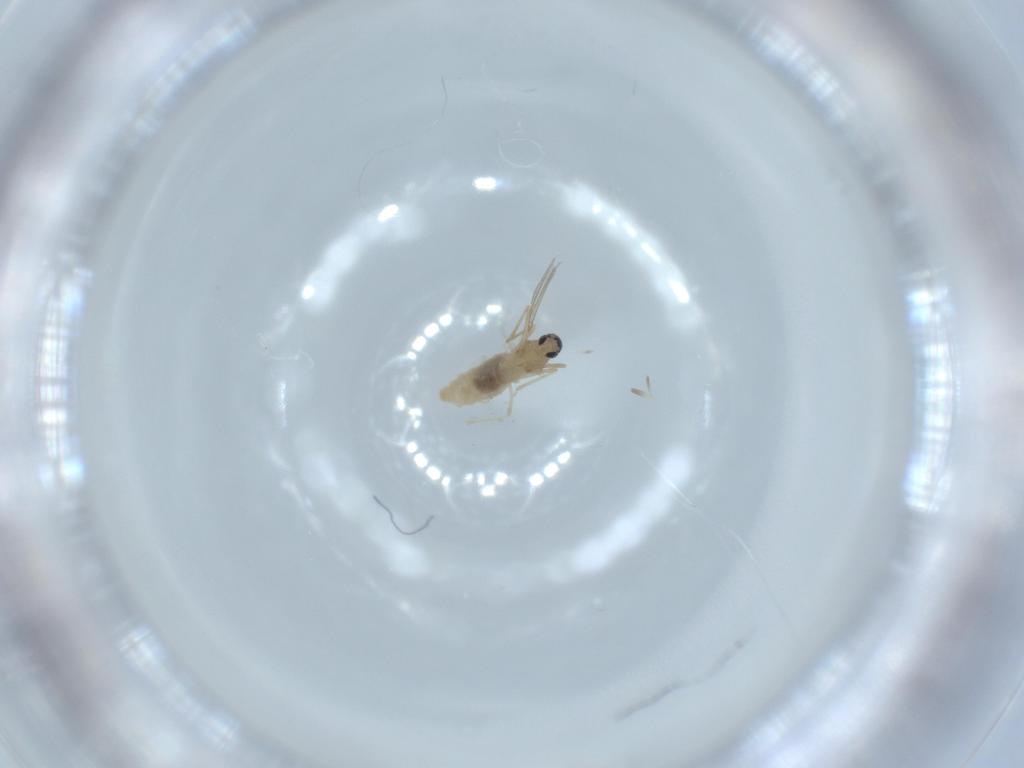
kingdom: Animalia
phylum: Arthropoda
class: Insecta
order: Diptera
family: Cecidomyiidae
